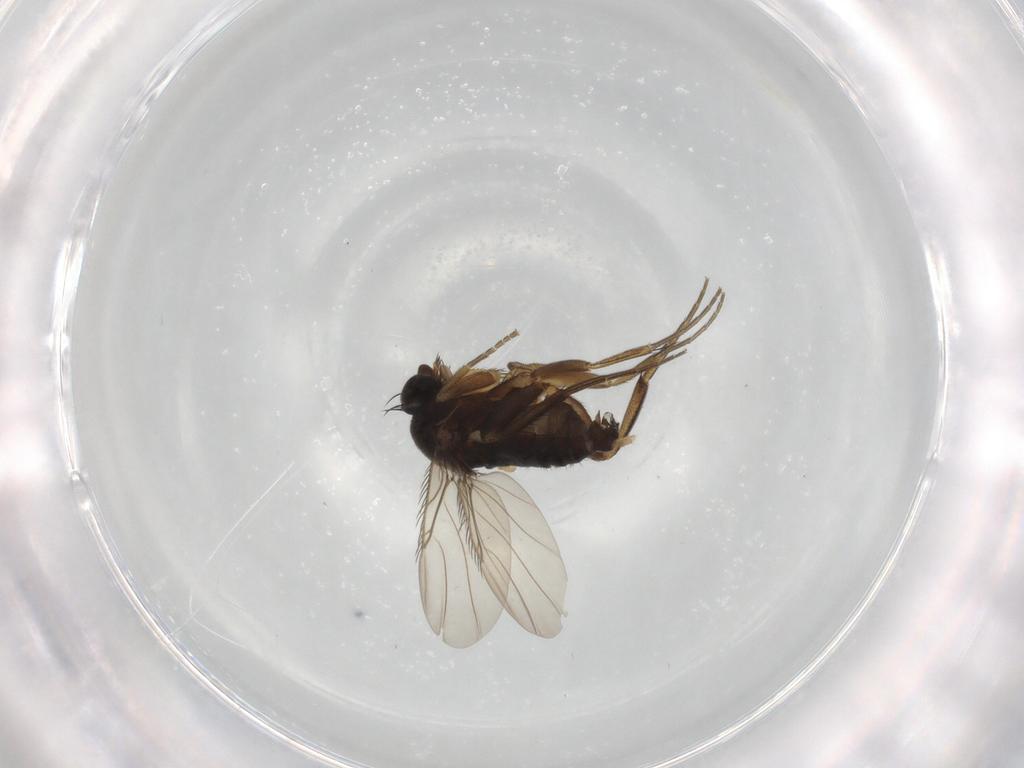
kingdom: Animalia
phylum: Arthropoda
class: Insecta
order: Diptera
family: Phoridae
